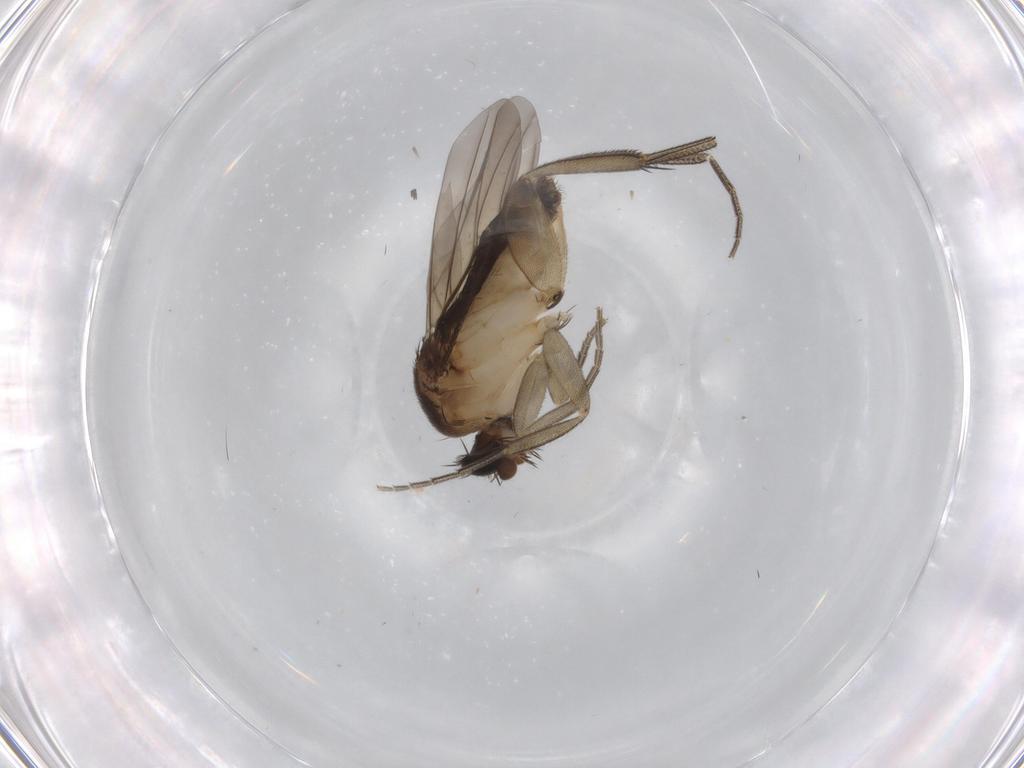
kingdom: Animalia
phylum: Arthropoda
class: Insecta
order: Diptera
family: Phoridae
